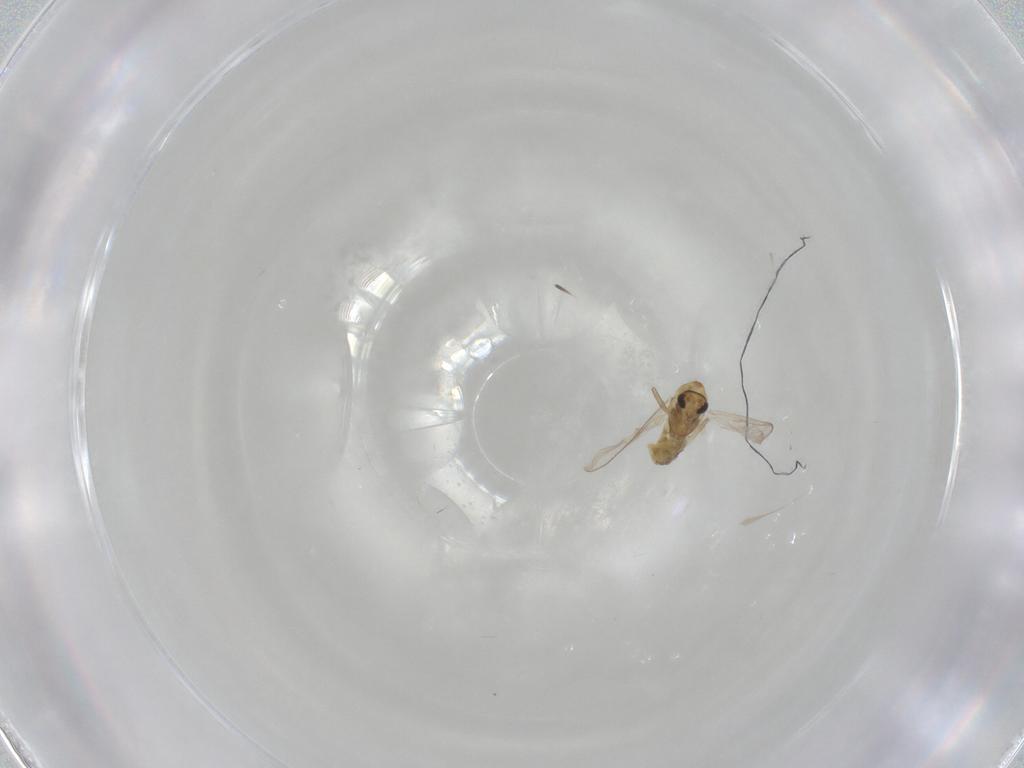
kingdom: Animalia
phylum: Arthropoda
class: Insecta
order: Diptera
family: Chironomidae
